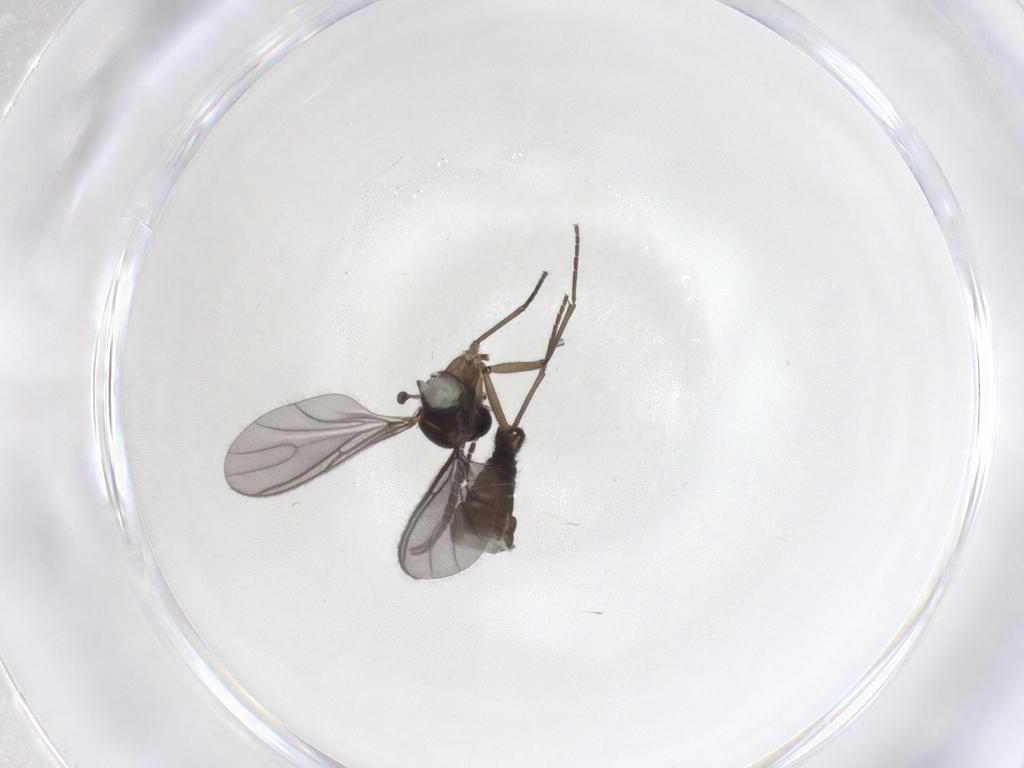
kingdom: Animalia
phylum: Arthropoda
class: Insecta
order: Diptera
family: Sciaridae
